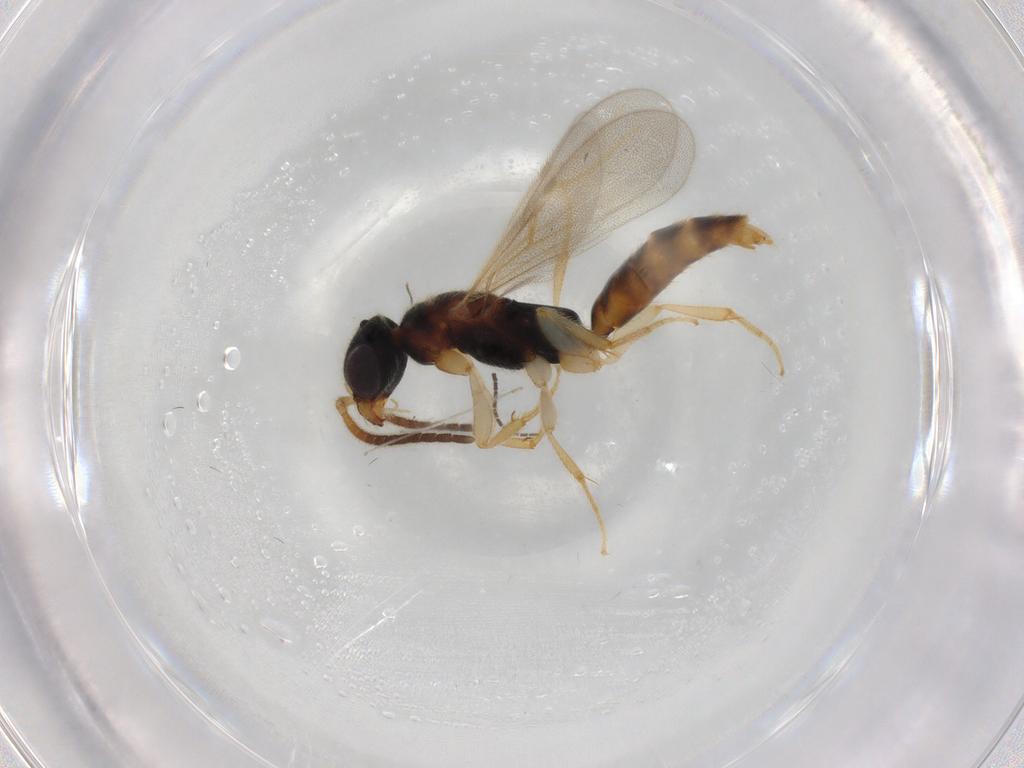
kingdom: Animalia
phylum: Arthropoda
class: Insecta
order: Hymenoptera
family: Bethylidae
